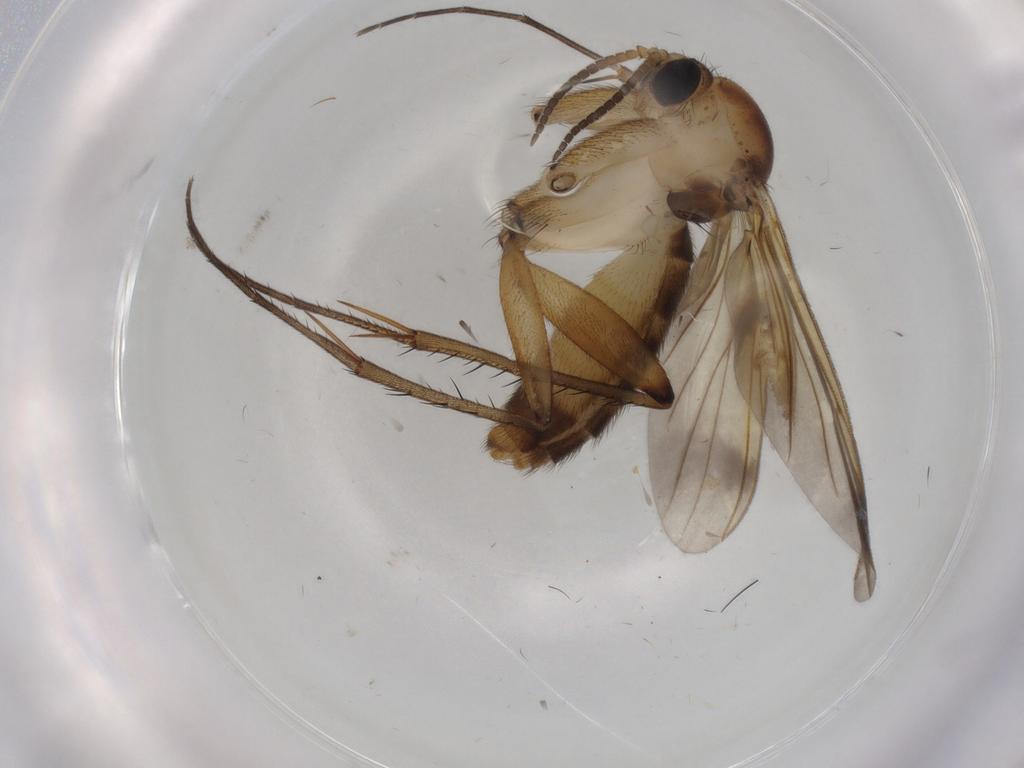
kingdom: Animalia
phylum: Arthropoda
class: Insecta
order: Diptera
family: Mycetophilidae
